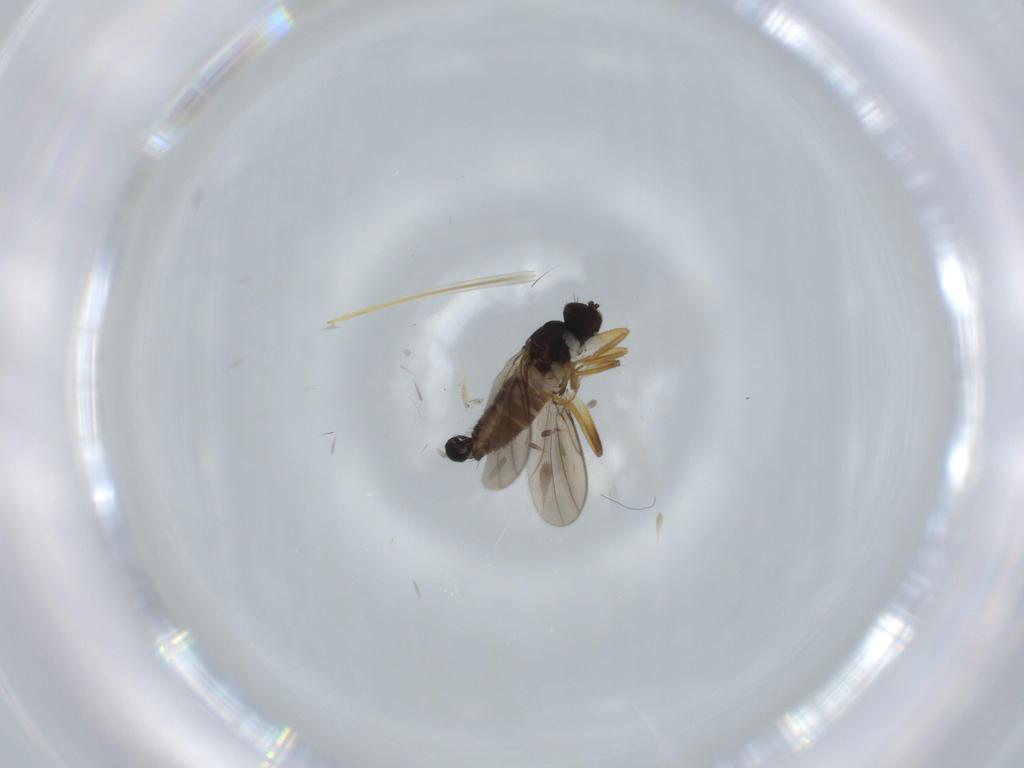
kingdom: Animalia
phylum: Arthropoda
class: Insecta
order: Diptera
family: Hybotidae
